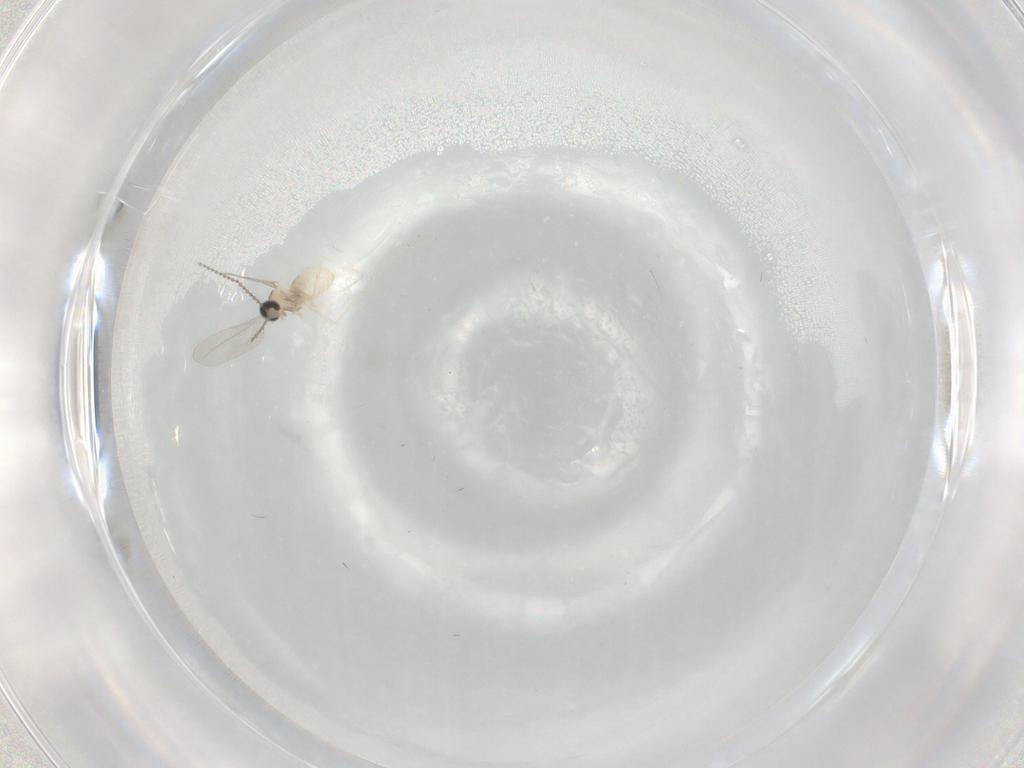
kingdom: Animalia
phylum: Arthropoda
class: Insecta
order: Diptera
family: Cecidomyiidae
